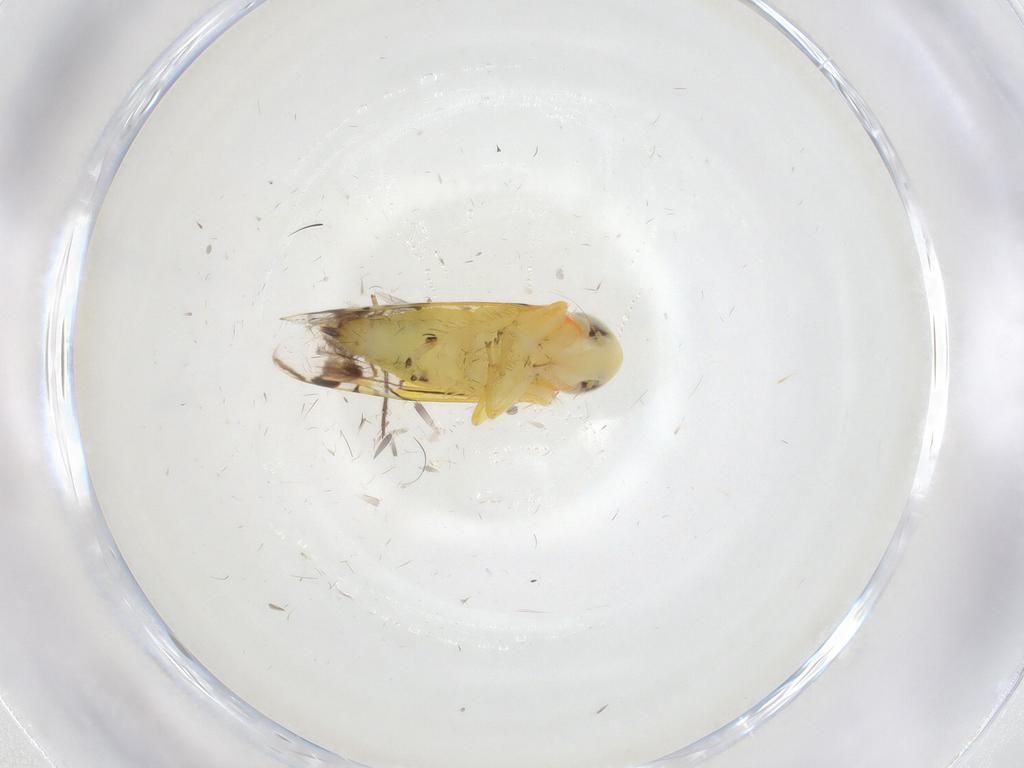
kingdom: Animalia
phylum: Arthropoda
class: Insecta
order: Hemiptera
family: Cicadellidae
